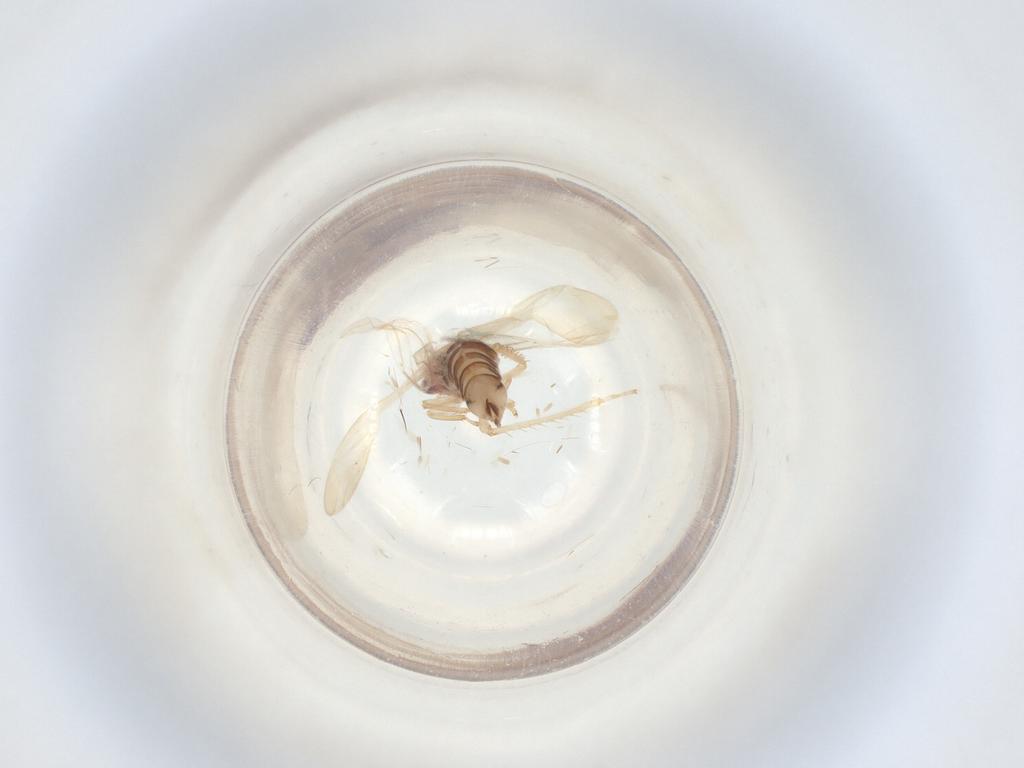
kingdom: Animalia
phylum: Arthropoda
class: Insecta
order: Hemiptera
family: Cicadellidae
